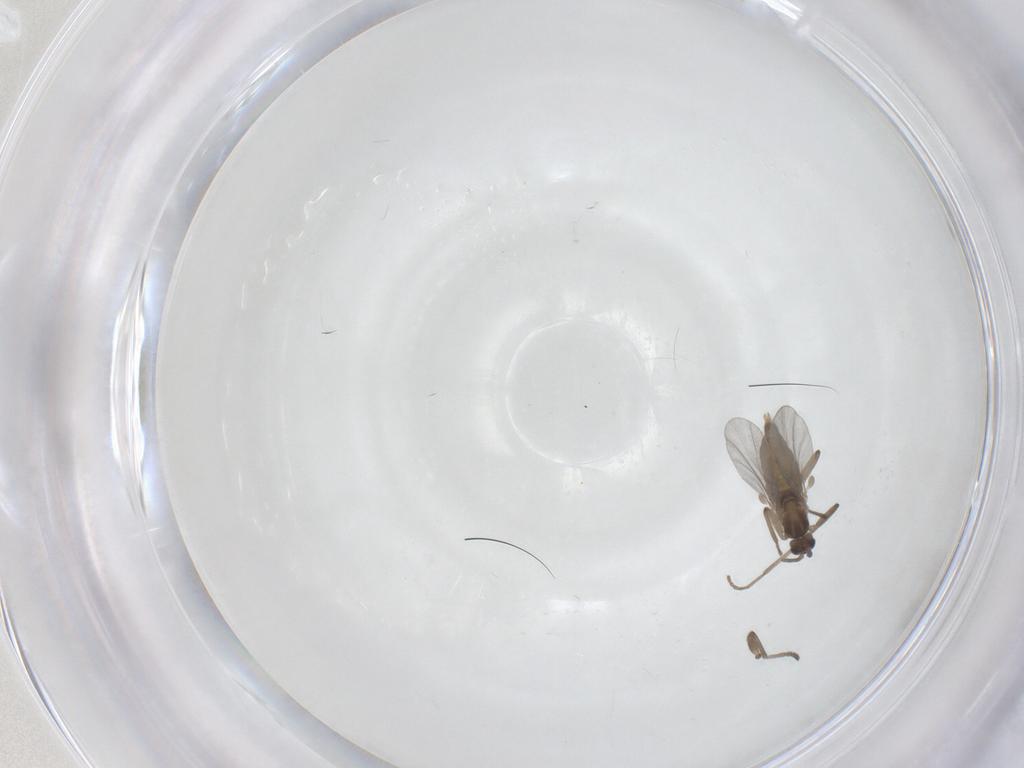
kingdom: Animalia
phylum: Arthropoda
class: Insecta
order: Diptera
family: Cecidomyiidae
